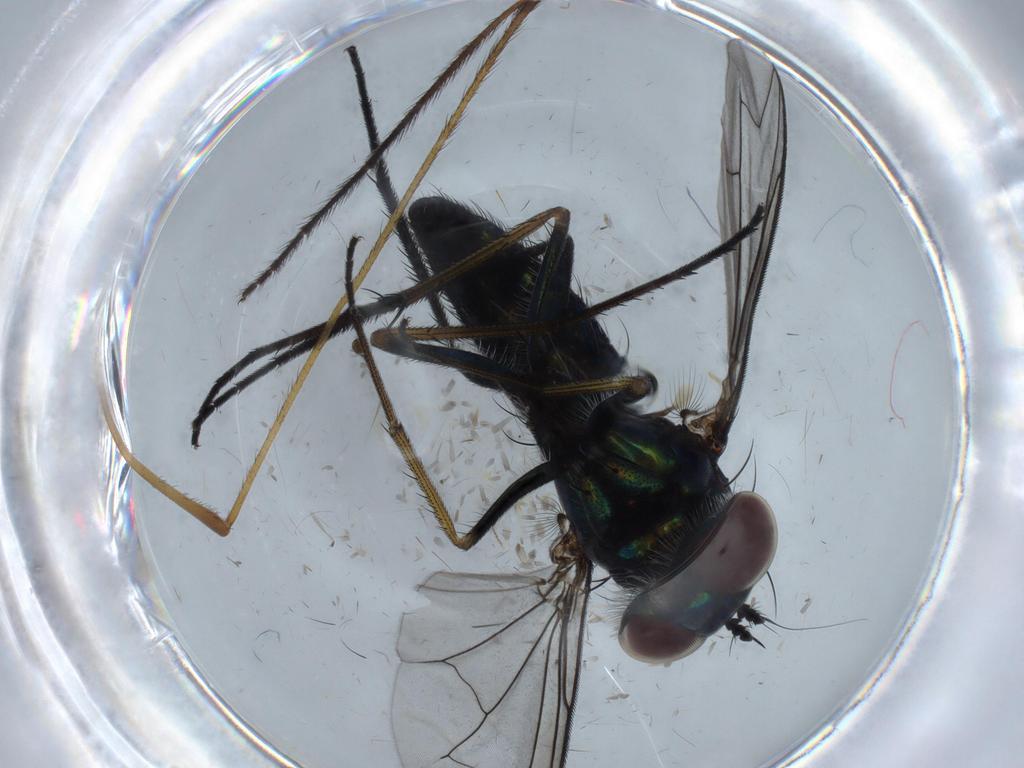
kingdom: Animalia
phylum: Arthropoda
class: Insecta
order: Diptera
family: Dolichopodidae
